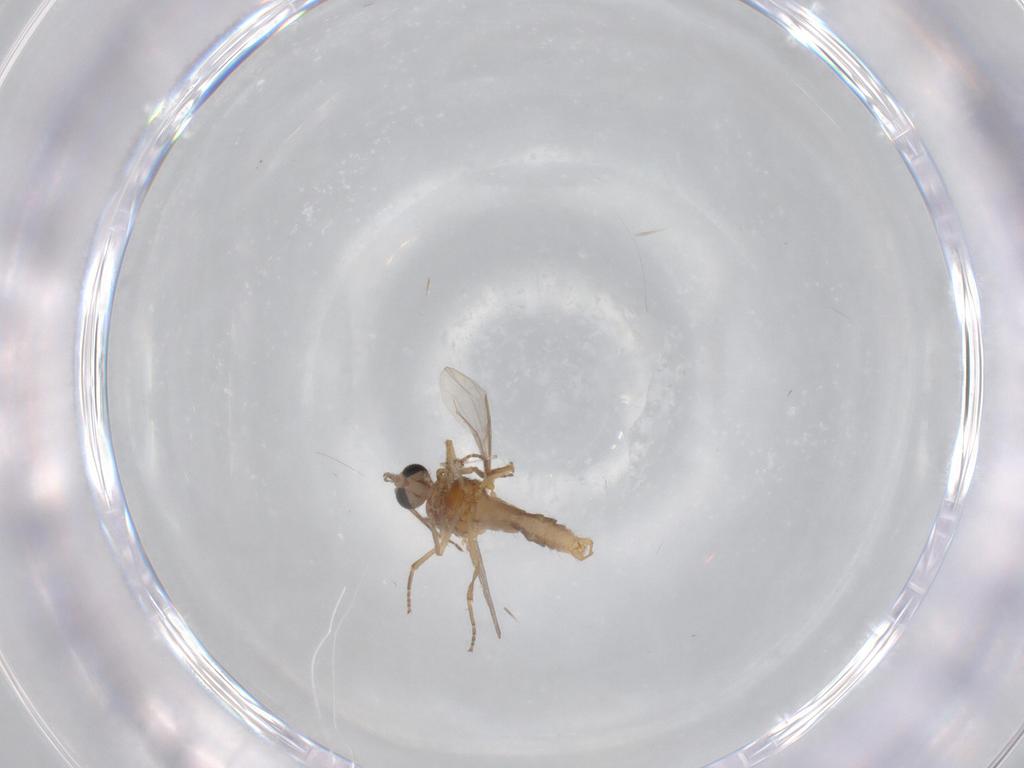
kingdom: Animalia
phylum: Arthropoda
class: Insecta
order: Diptera
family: Ceratopogonidae
